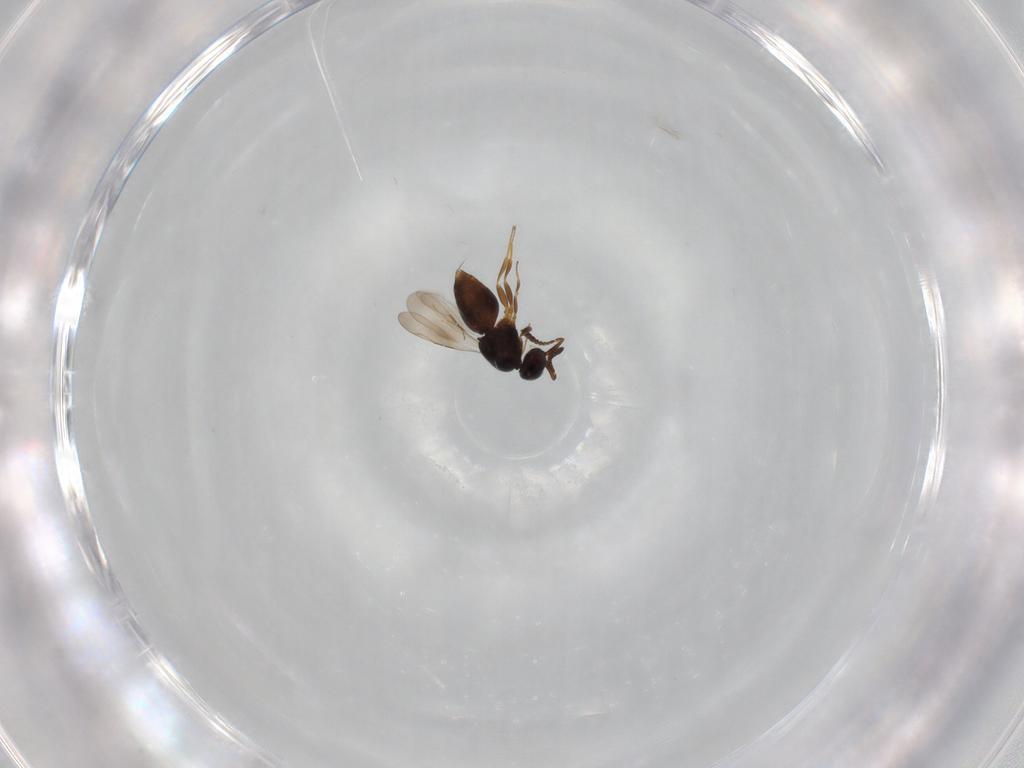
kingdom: Animalia
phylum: Arthropoda
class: Insecta
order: Hymenoptera
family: Ceraphronidae
